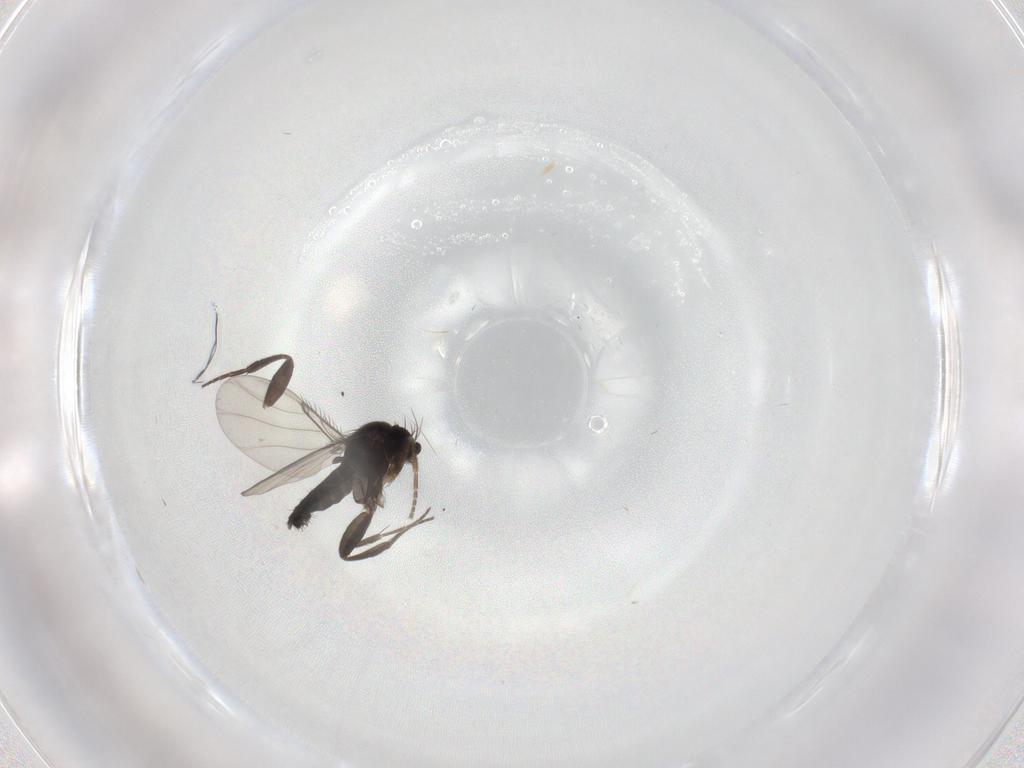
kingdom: Animalia
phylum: Arthropoda
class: Insecta
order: Diptera
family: Phoridae
